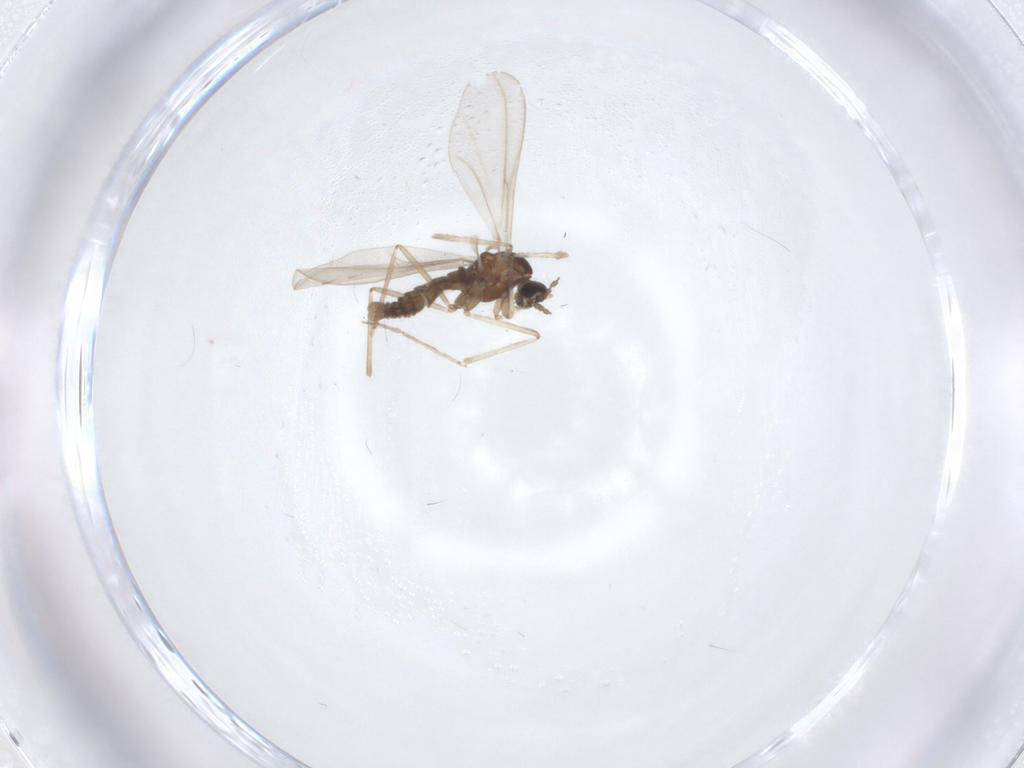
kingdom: Animalia
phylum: Arthropoda
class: Insecta
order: Diptera
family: Cecidomyiidae
